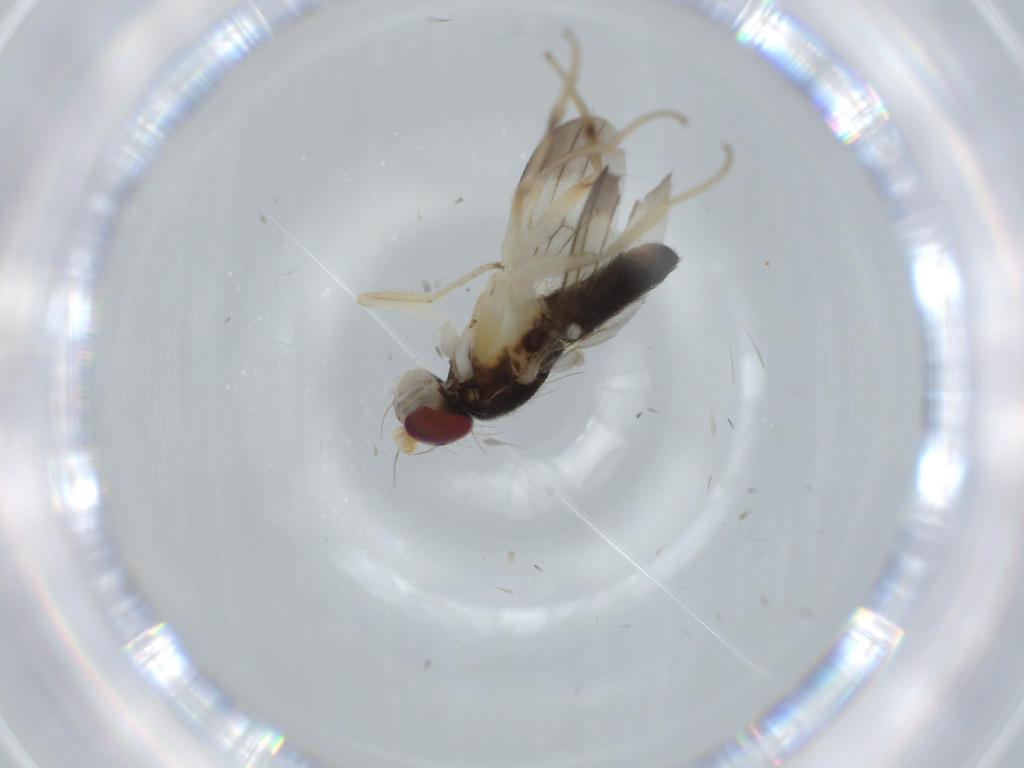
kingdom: Animalia
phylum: Arthropoda
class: Insecta
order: Diptera
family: Clusiidae
